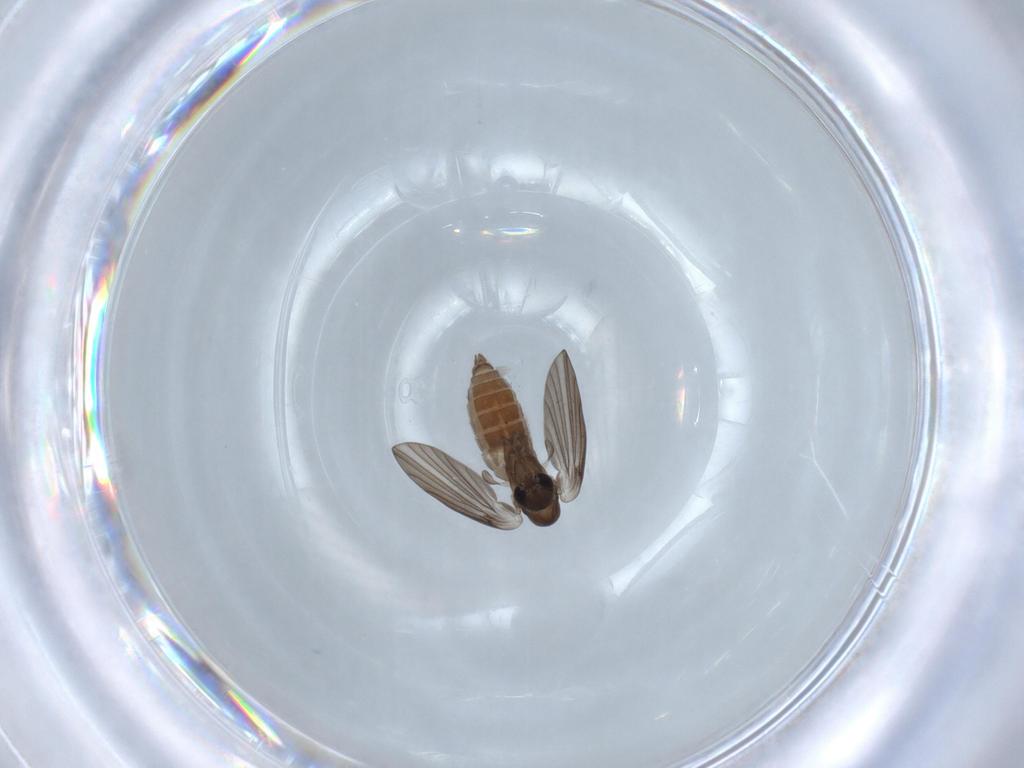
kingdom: Animalia
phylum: Arthropoda
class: Insecta
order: Diptera
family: Psychodidae
